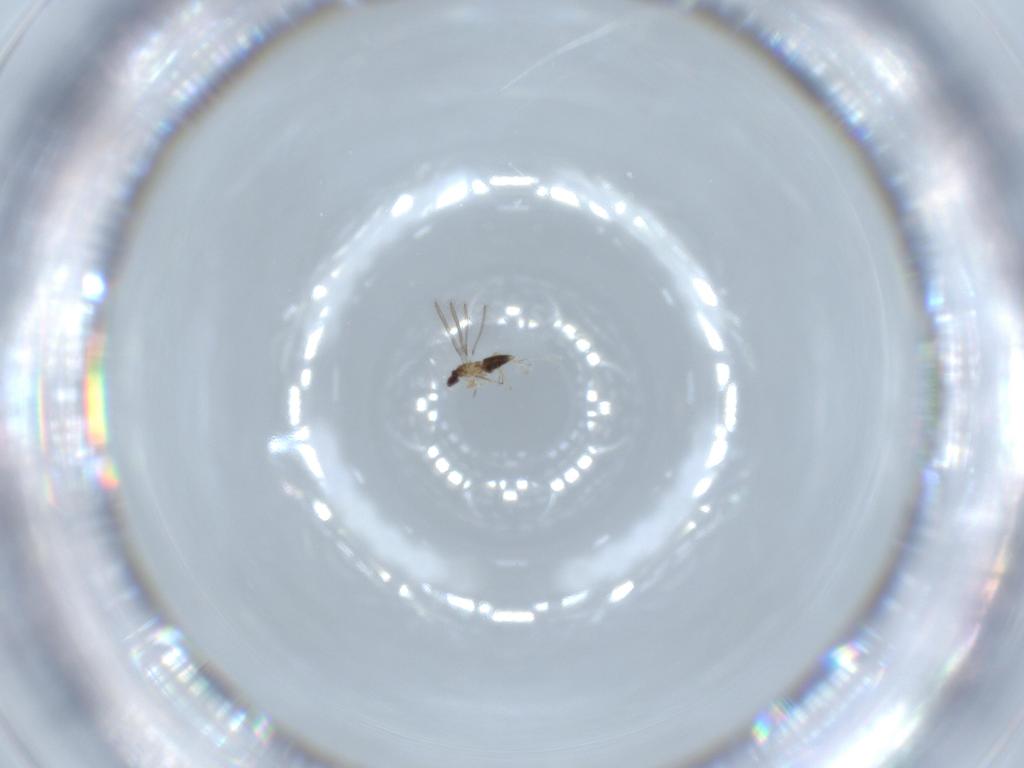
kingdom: Animalia
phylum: Arthropoda
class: Insecta
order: Hymenoptera
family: Mymaridae
